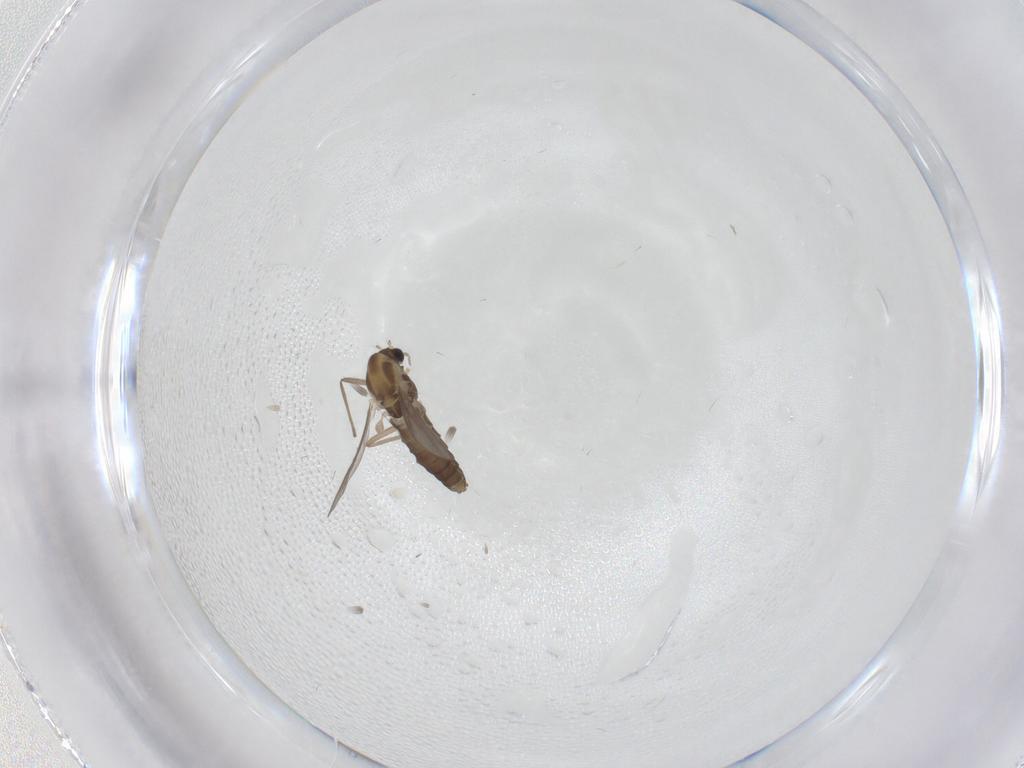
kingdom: Animalia
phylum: Arthropoda
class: Insecta
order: Diptera
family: Chironomidae
